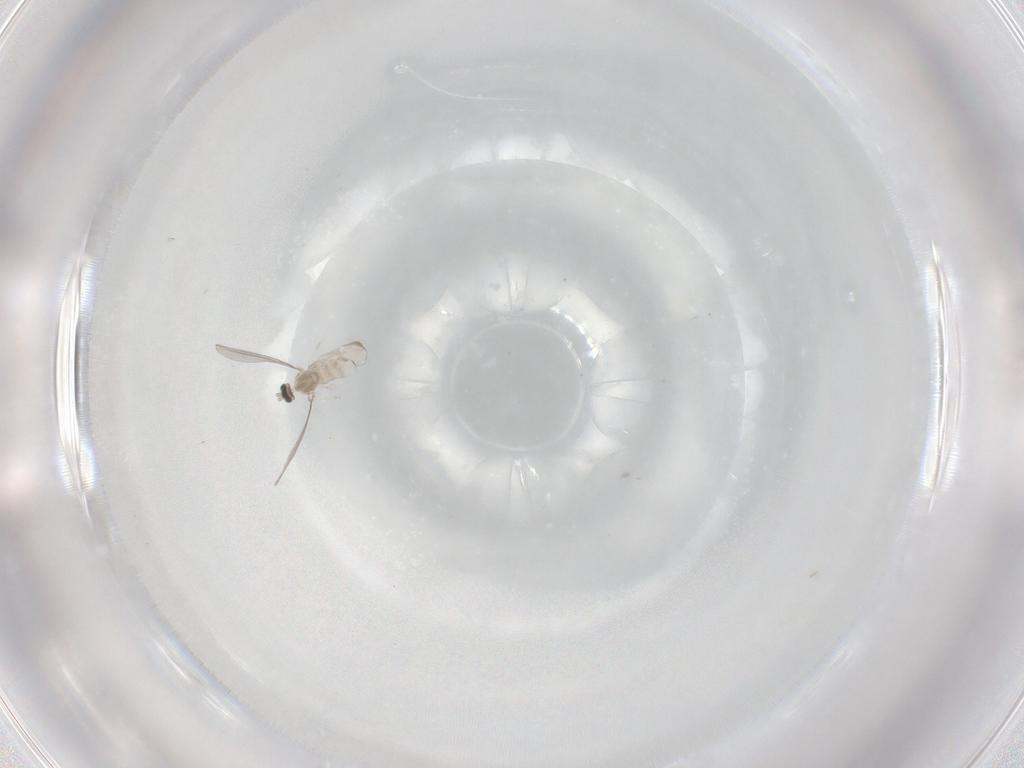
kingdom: Animalia
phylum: Arthropoda
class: Insecta
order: Diptera
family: Cecidomyiidae
